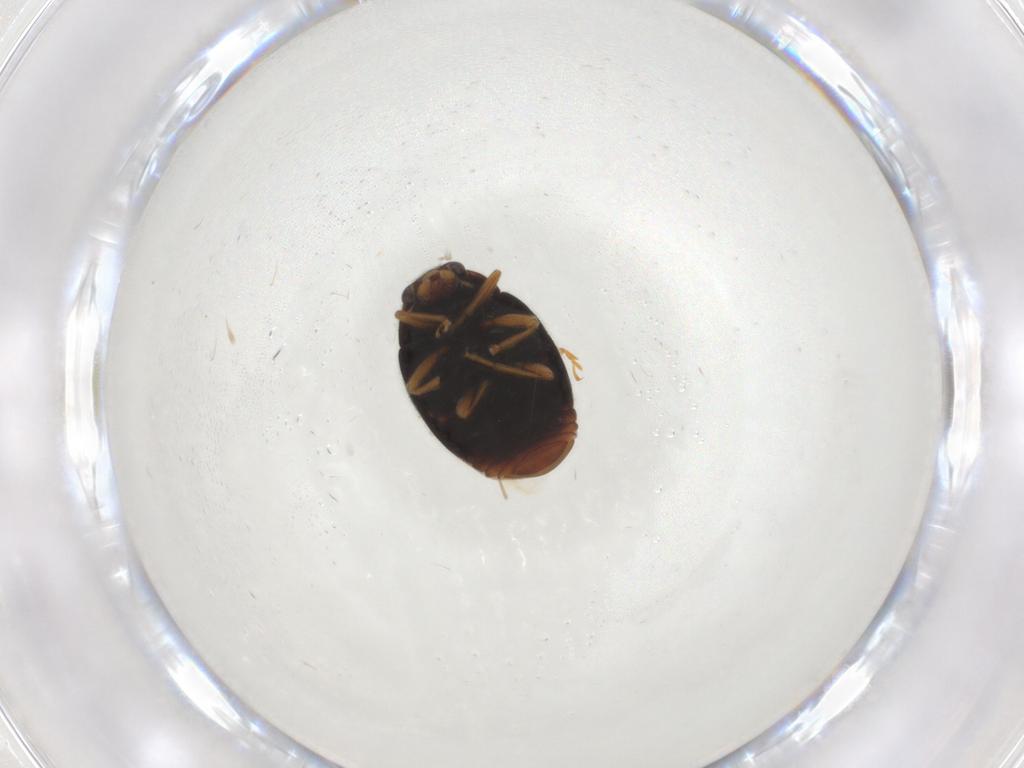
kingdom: Animalia
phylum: Arthropoda
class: Insecta
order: Coleoptera
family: Coccinellidae
